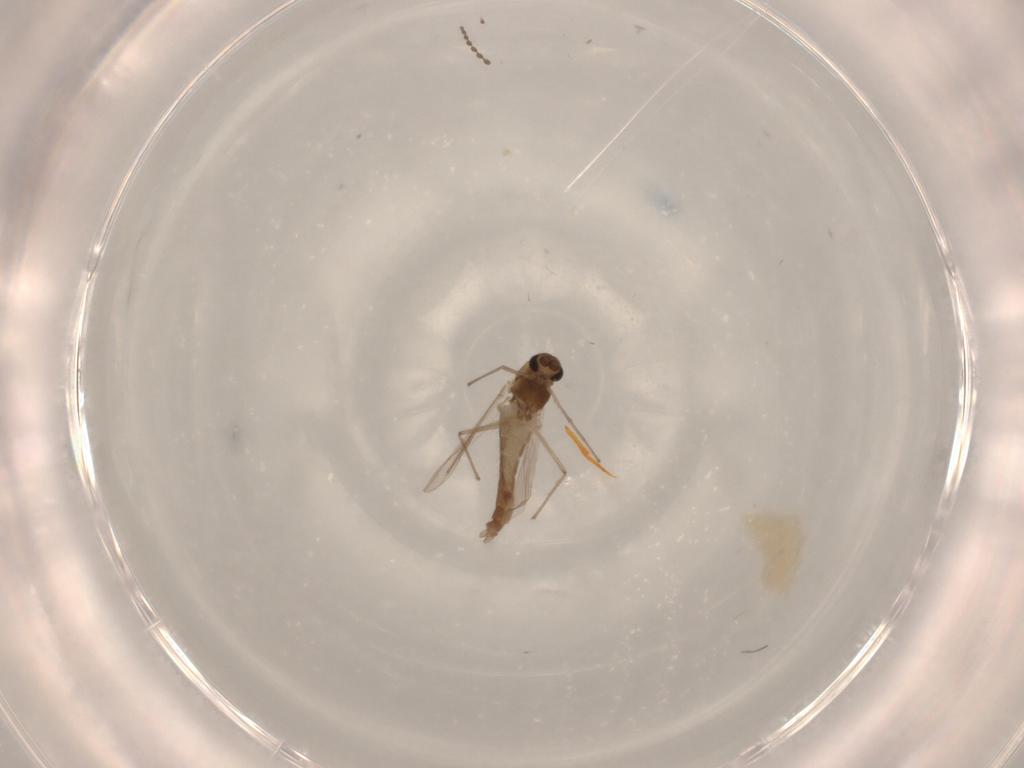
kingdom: Animalia
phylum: Arthropoda
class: Insecta
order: Diptera
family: Chironomidae
